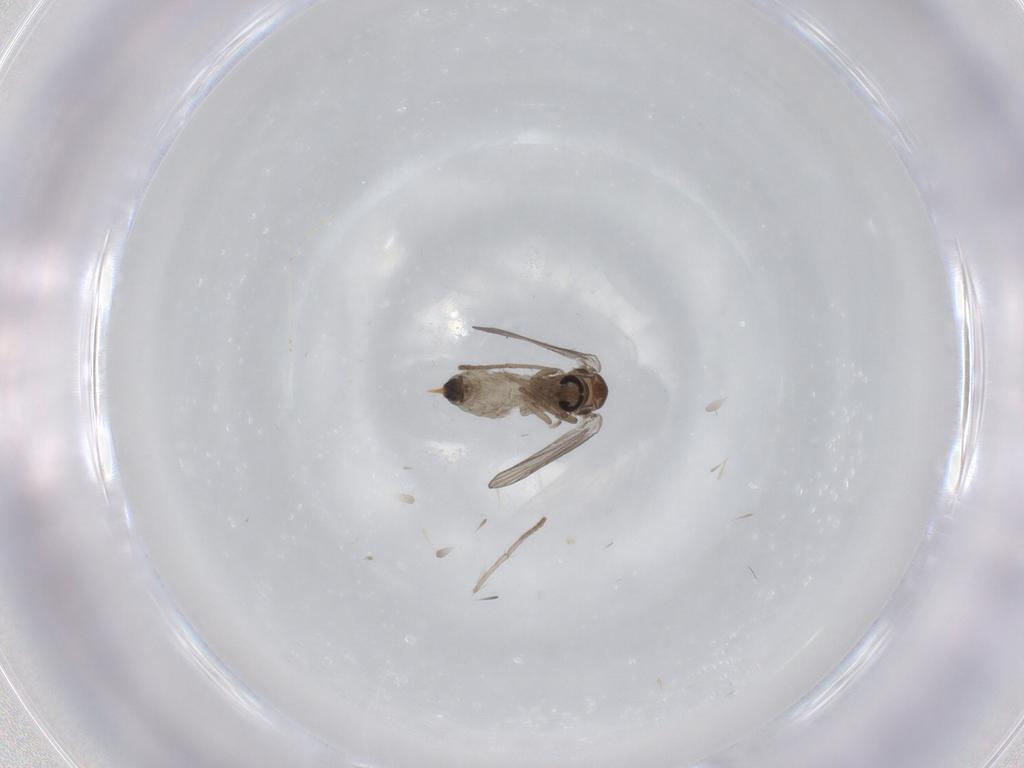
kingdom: Animalia
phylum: Arthropoda
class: Insecta
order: Diptera
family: Psychodidae
